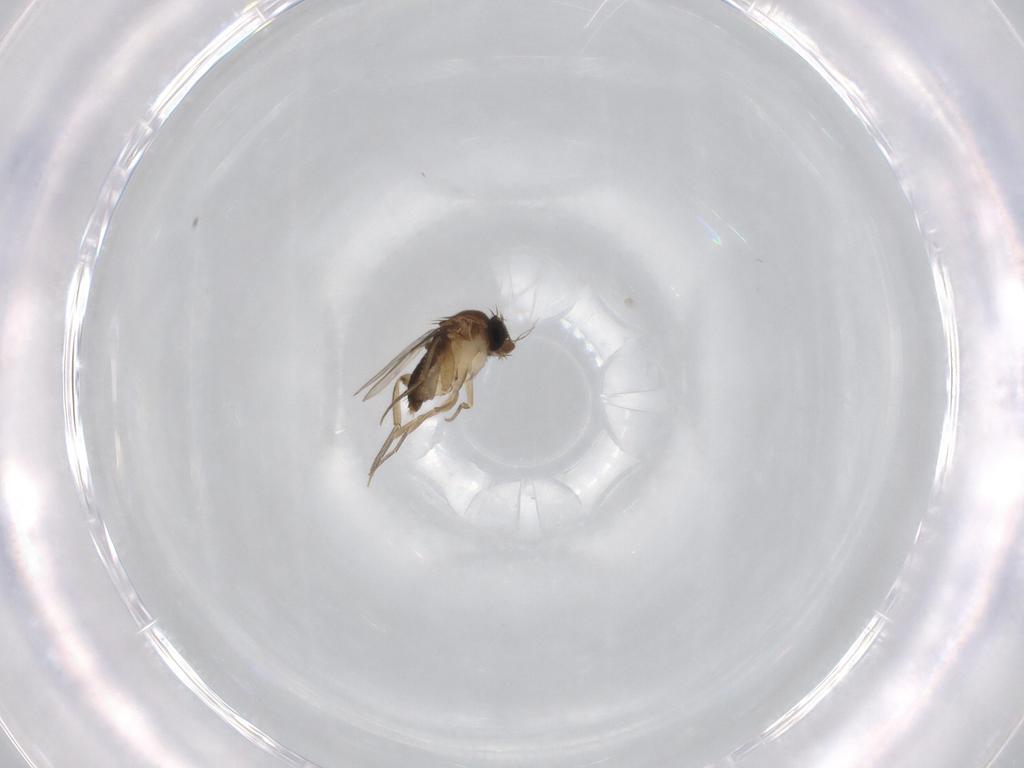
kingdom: Animalia
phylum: Arthropoda
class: Insecta
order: Diptera
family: Phoridae
